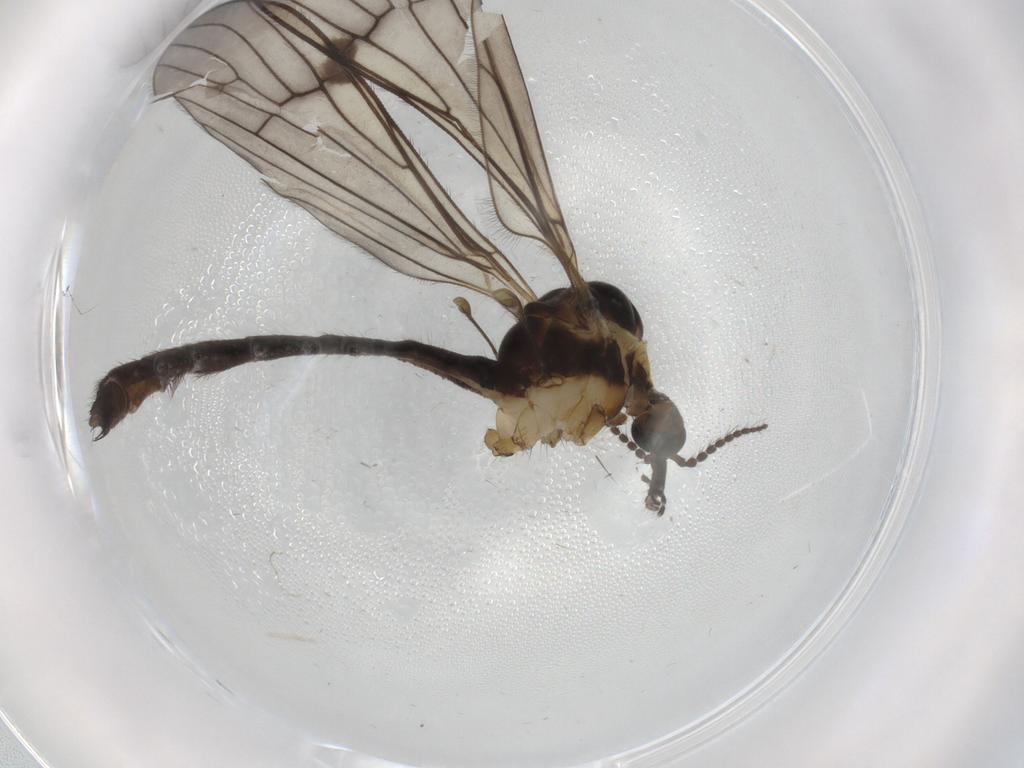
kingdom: Animalia
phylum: Arthropoda
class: Insecta
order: Diptera
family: Limoniidae
